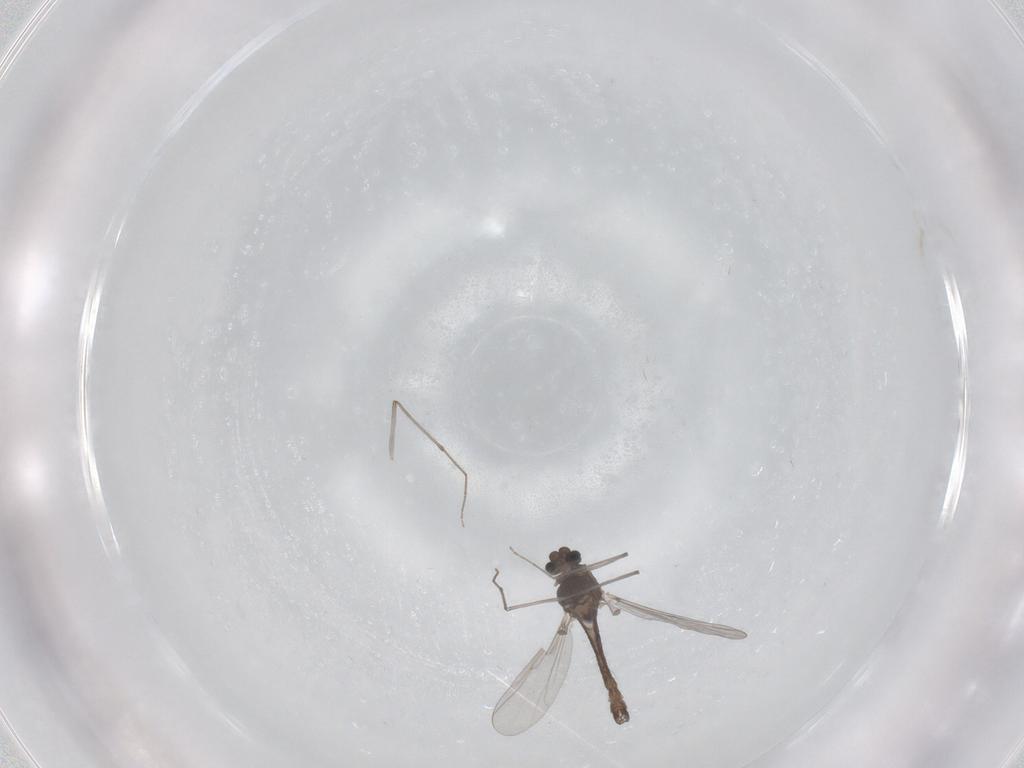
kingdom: Animalia
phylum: Arthropoda
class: Insecta
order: Diptera
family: Chironomidae
